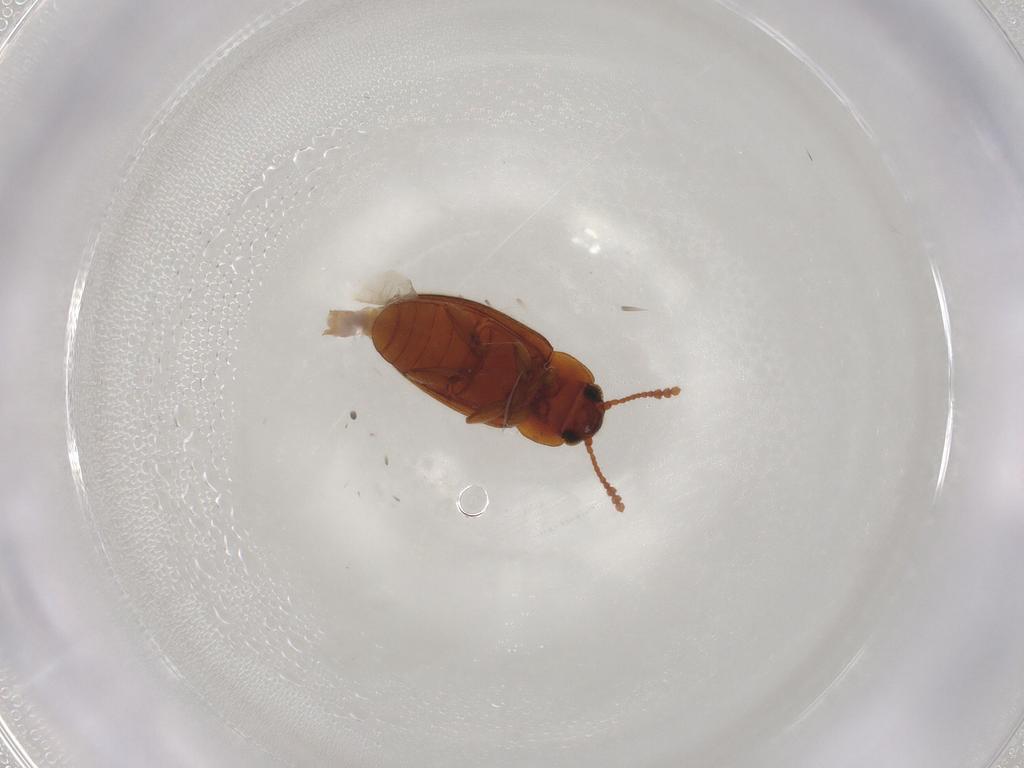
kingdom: Animalia
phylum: Arthropoda
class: Insecta
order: Coleoptera
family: Erotylidae
